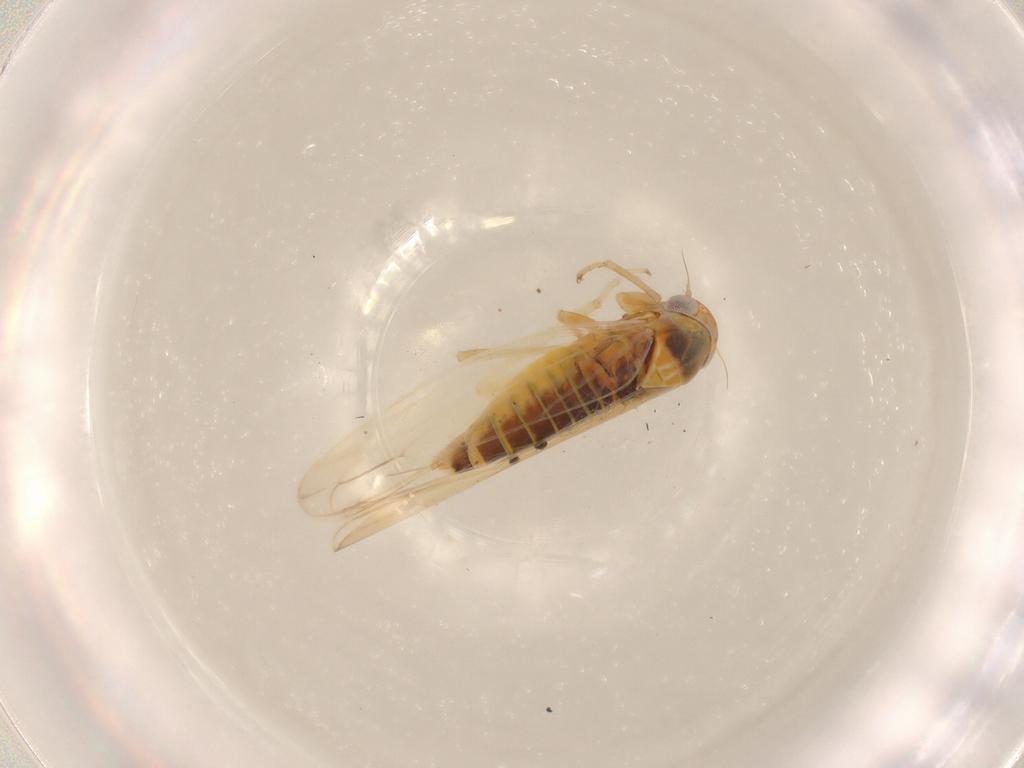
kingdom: Animalia
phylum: Arthropoda
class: Insecta
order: Hemiptera
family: Cicadellidae
